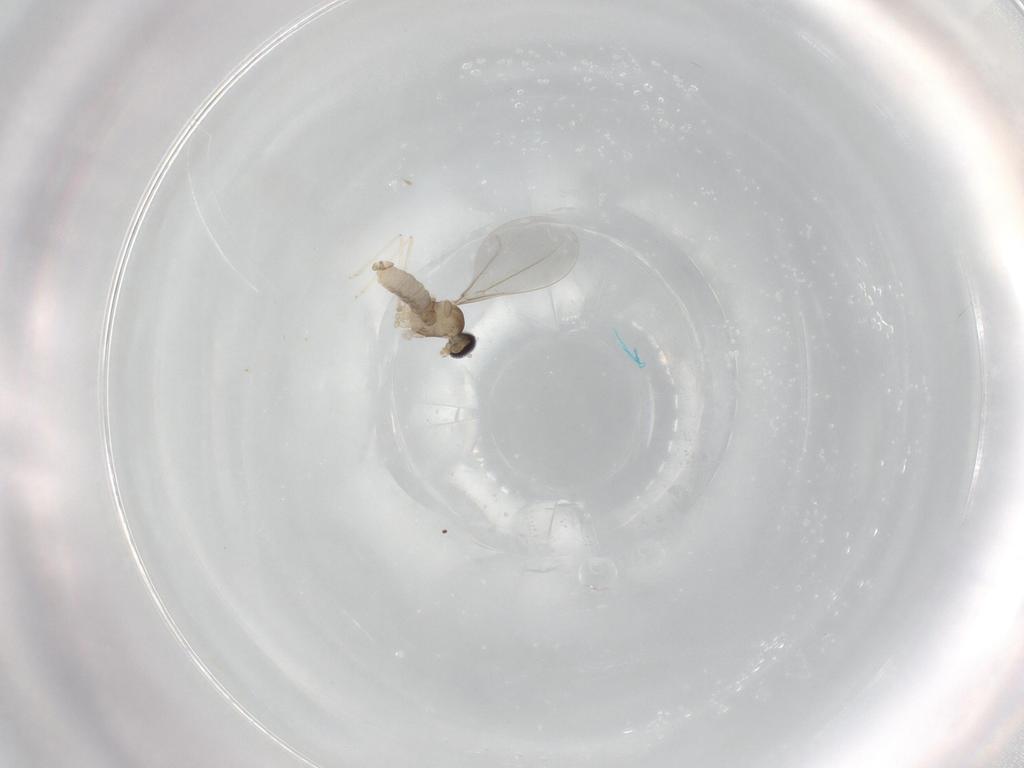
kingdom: Animalia
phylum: Arthropoda
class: Insecta
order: Diptera
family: Cecidomyiidae
